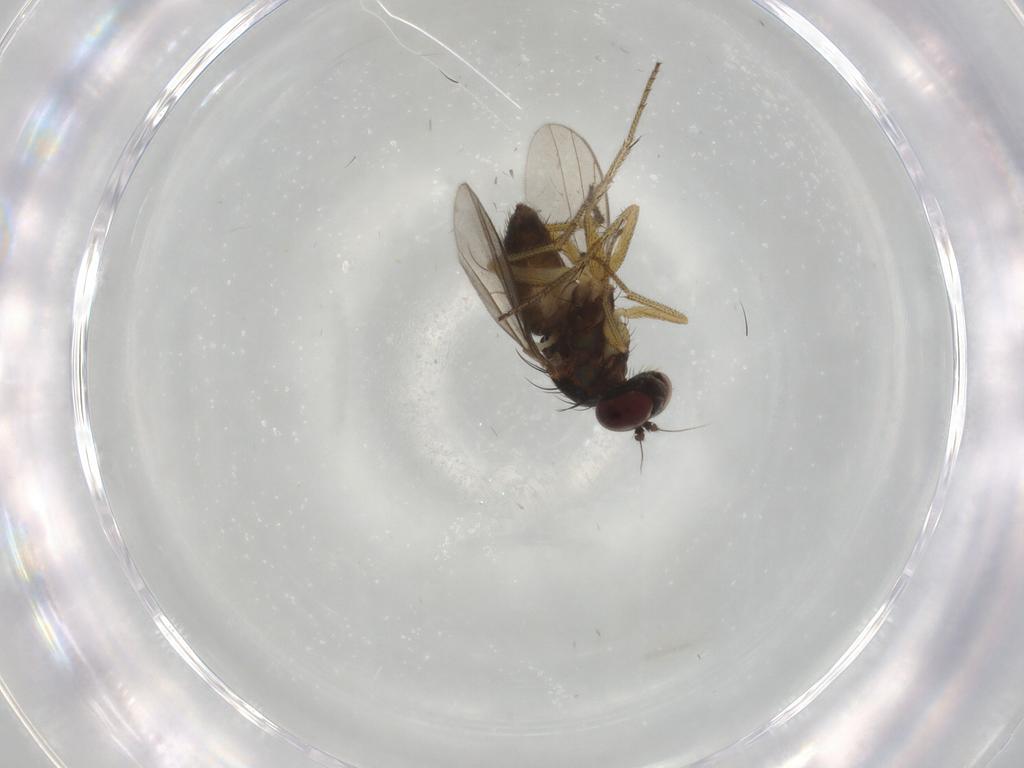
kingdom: Animalia
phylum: Arthropoda
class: Insecta
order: Diptera
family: Dolichopodidae
